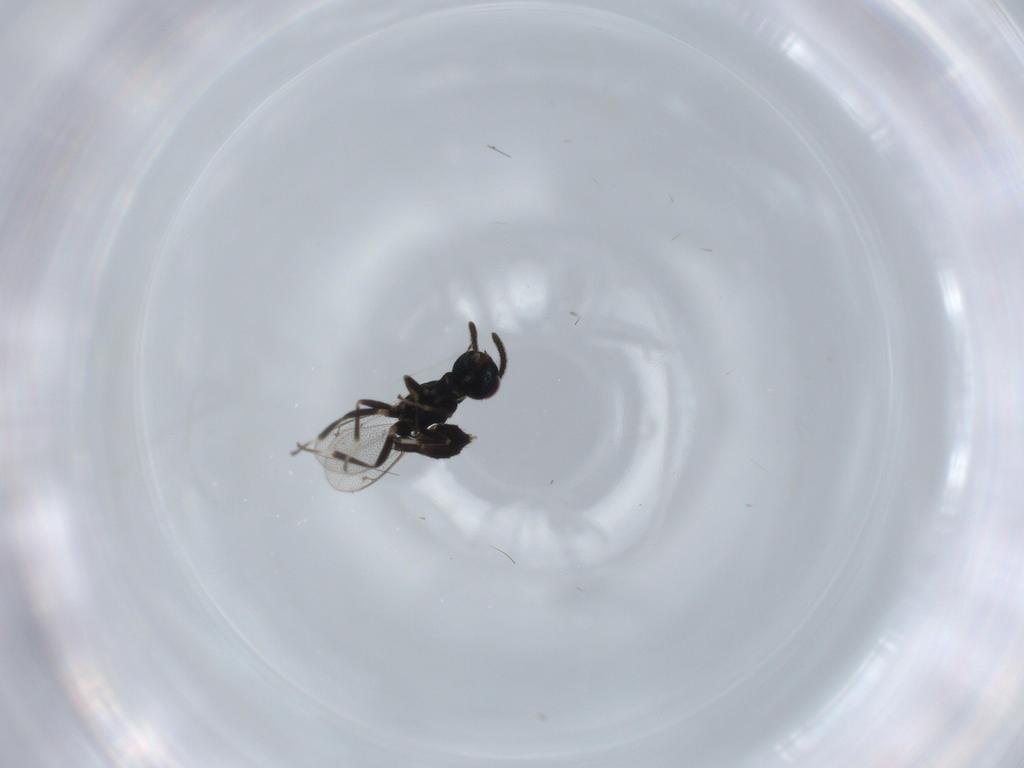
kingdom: Animalia
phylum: Arthropoda
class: Insecta
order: Hymenoptera
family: Eupelmidae
